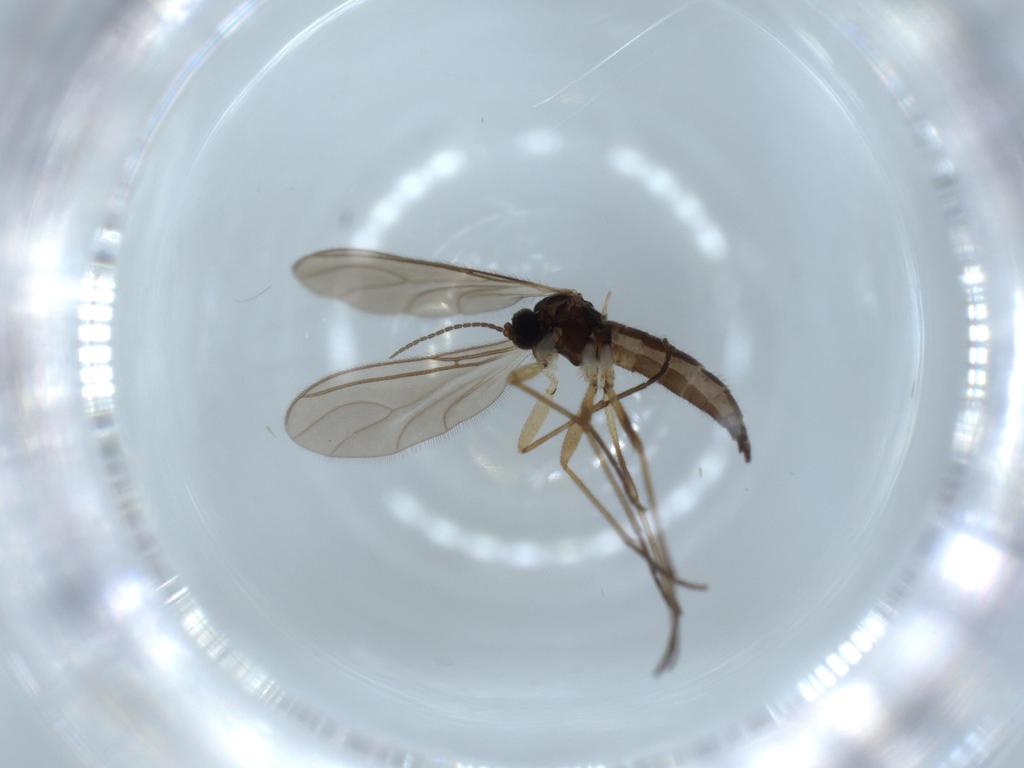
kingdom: Animalia
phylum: Arthropoda
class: Insecta
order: Diptera
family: Sciaridae
